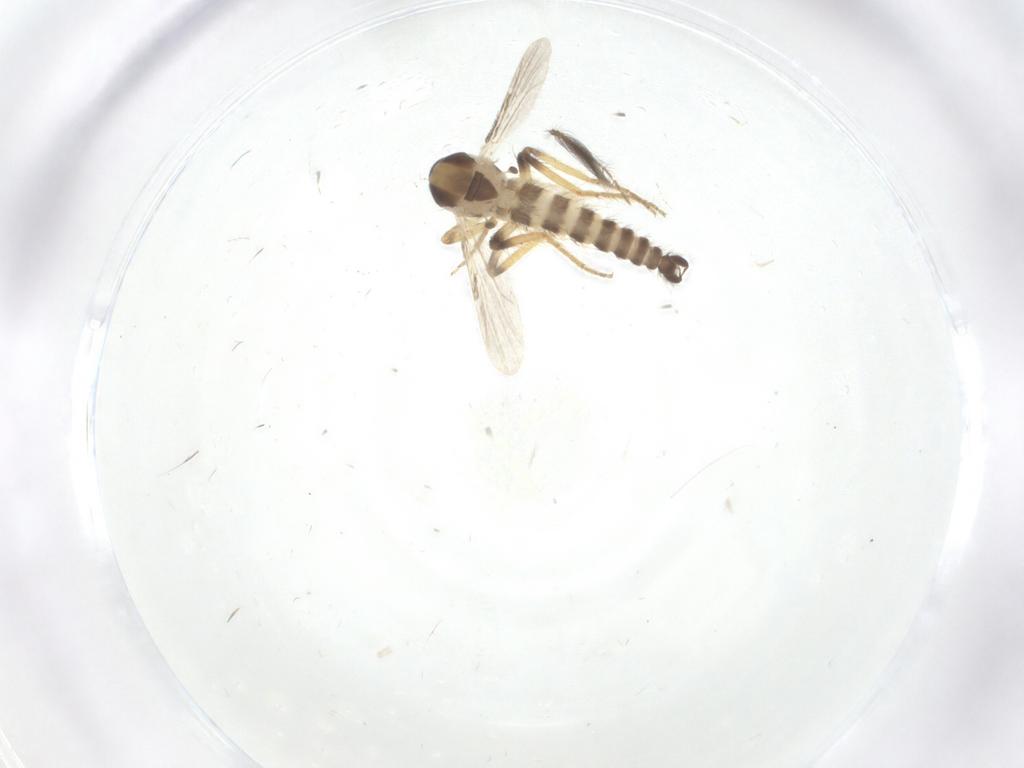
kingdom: Animalia
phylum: Arthropoda
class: Insecta
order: Diptera
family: Ceratopogonidae
